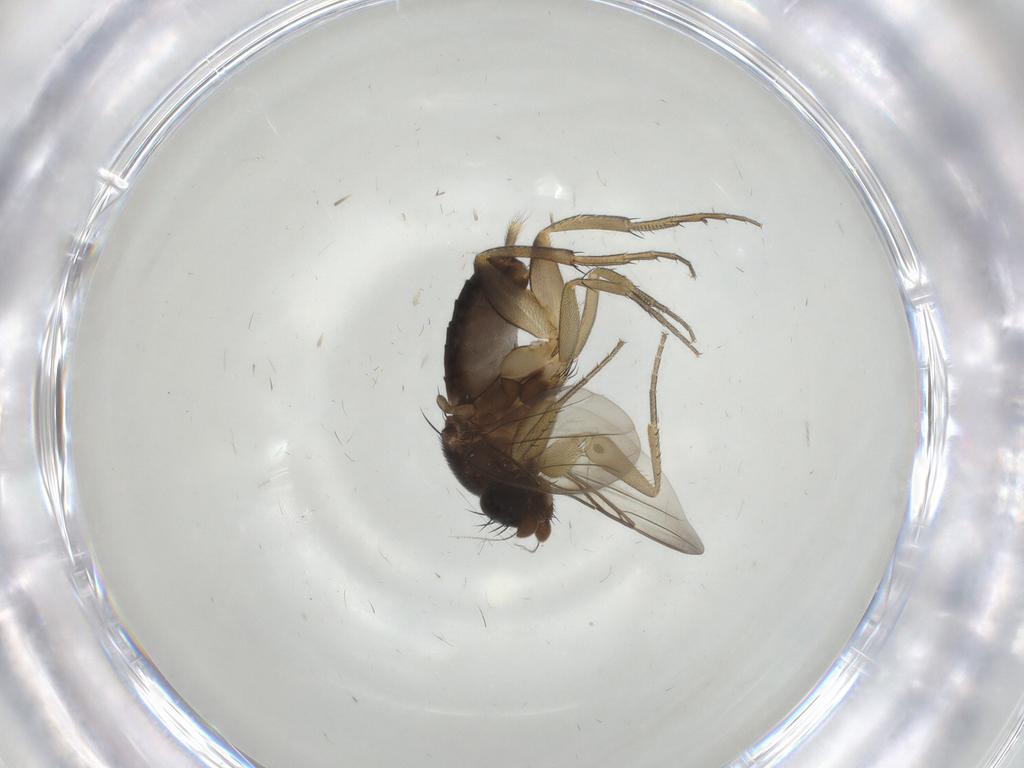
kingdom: Animalia
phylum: Arthropoda
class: Insecta
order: Diptera
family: Phoridae
